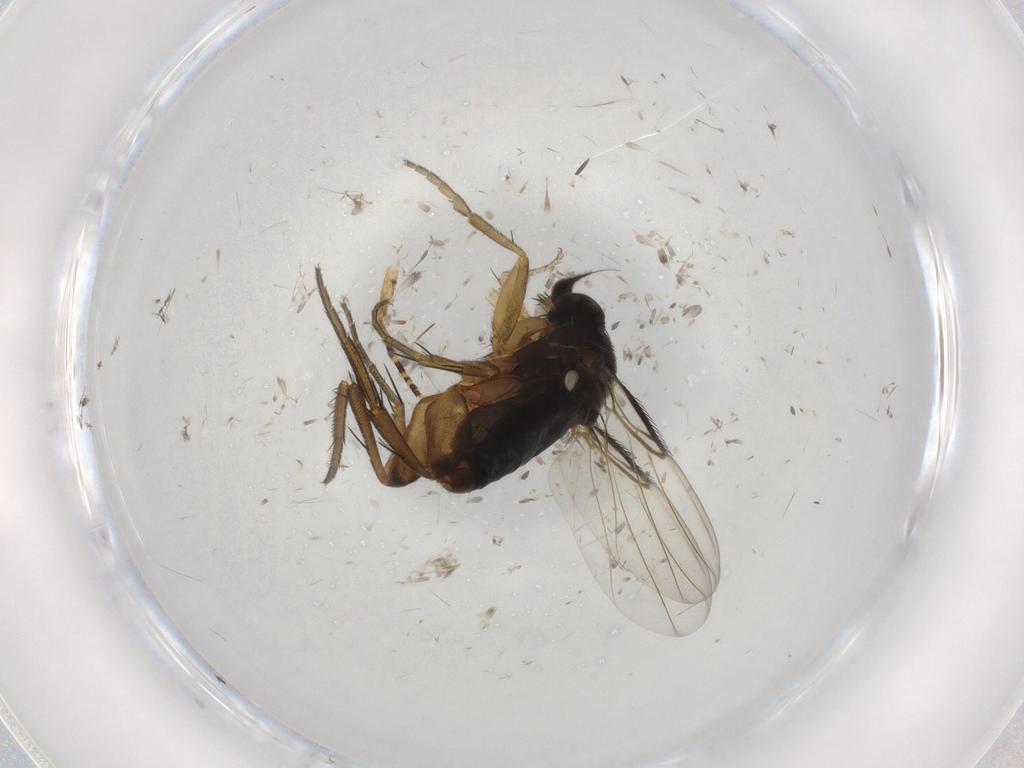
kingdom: Animalia
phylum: Arthropoda
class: Insecta
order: Diptera
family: Phoridae
